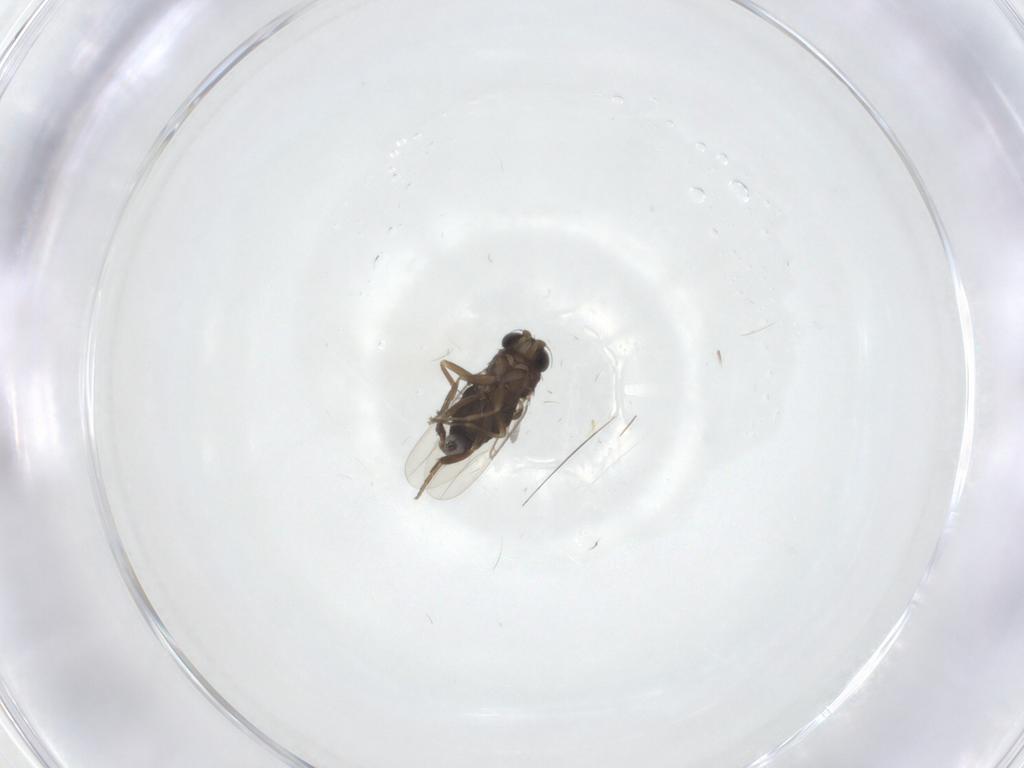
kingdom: Animalia
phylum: Arthropoda
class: Insecta
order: Diptera
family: Phoridae
